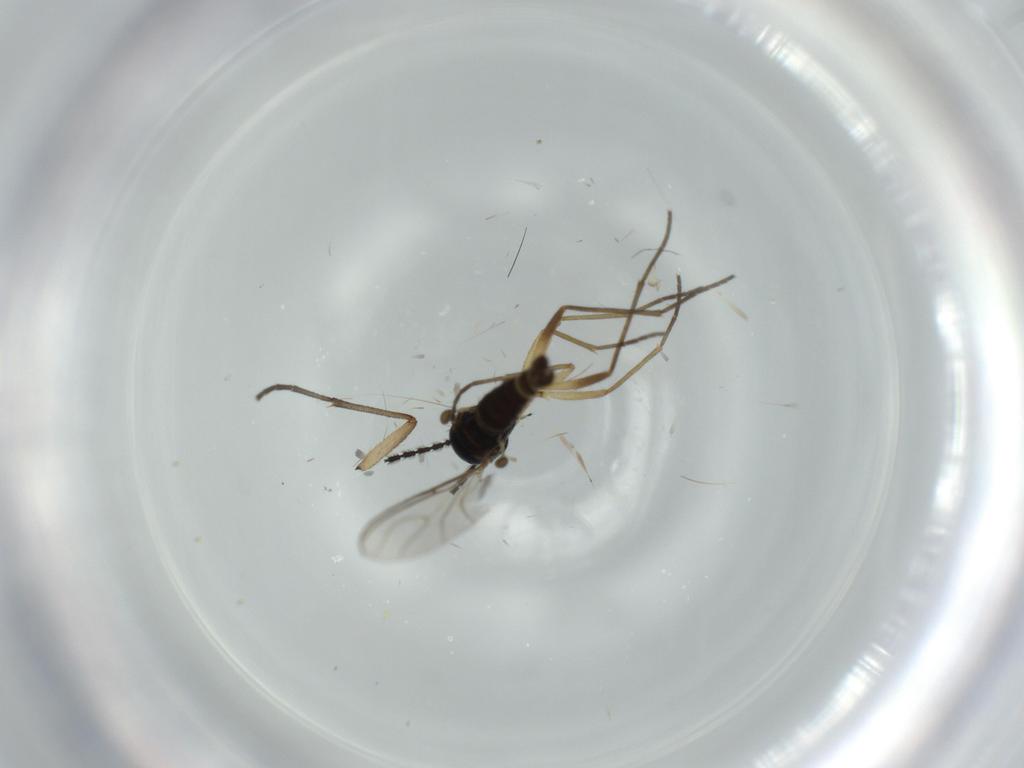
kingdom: Animalia
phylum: Arthropoda
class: Insecta
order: Diptera
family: Sciaridae
